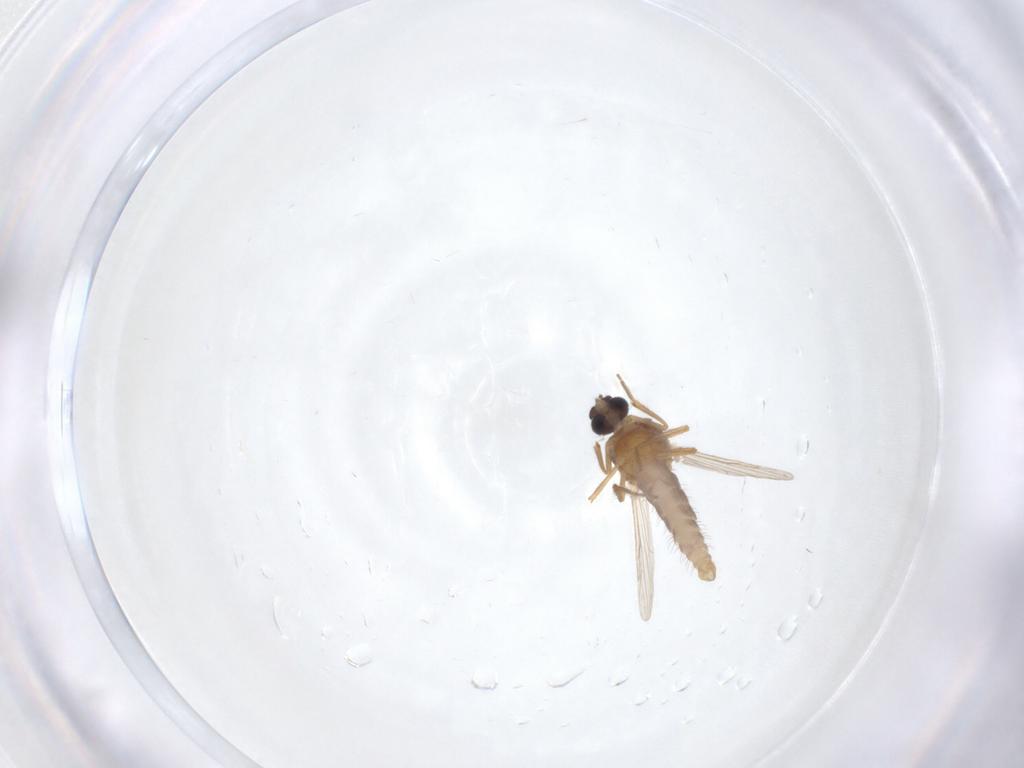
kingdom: Animalia
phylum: Arthropoda
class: Insecta
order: Diptera
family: Ceratopogonidae
